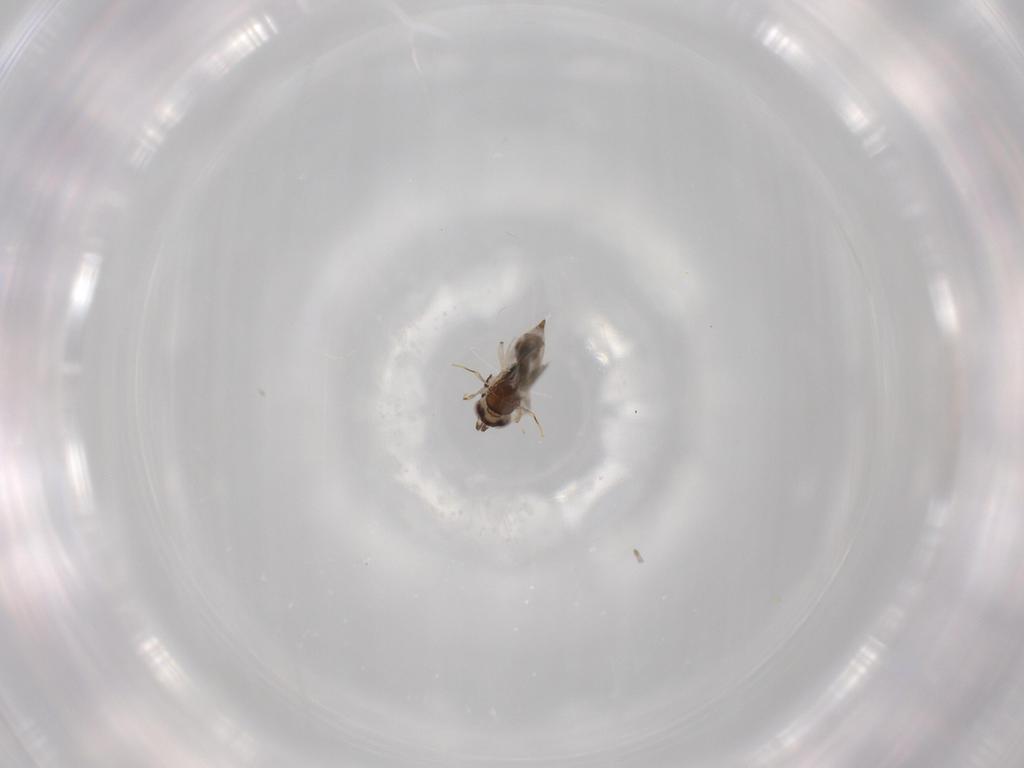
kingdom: Animalia
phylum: Arthropoda
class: Insecta
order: Hymenoptera
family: Ceraphronidae
